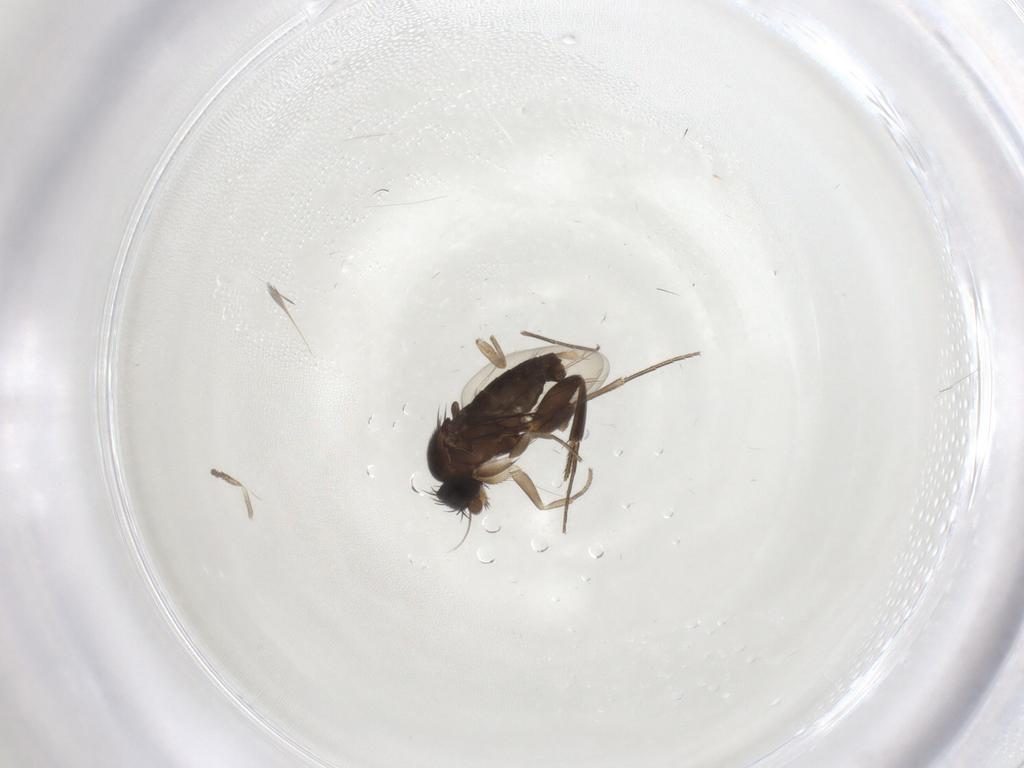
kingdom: Animalia
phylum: Arthropoda
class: Insecta
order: Diptera
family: Psychodidae
